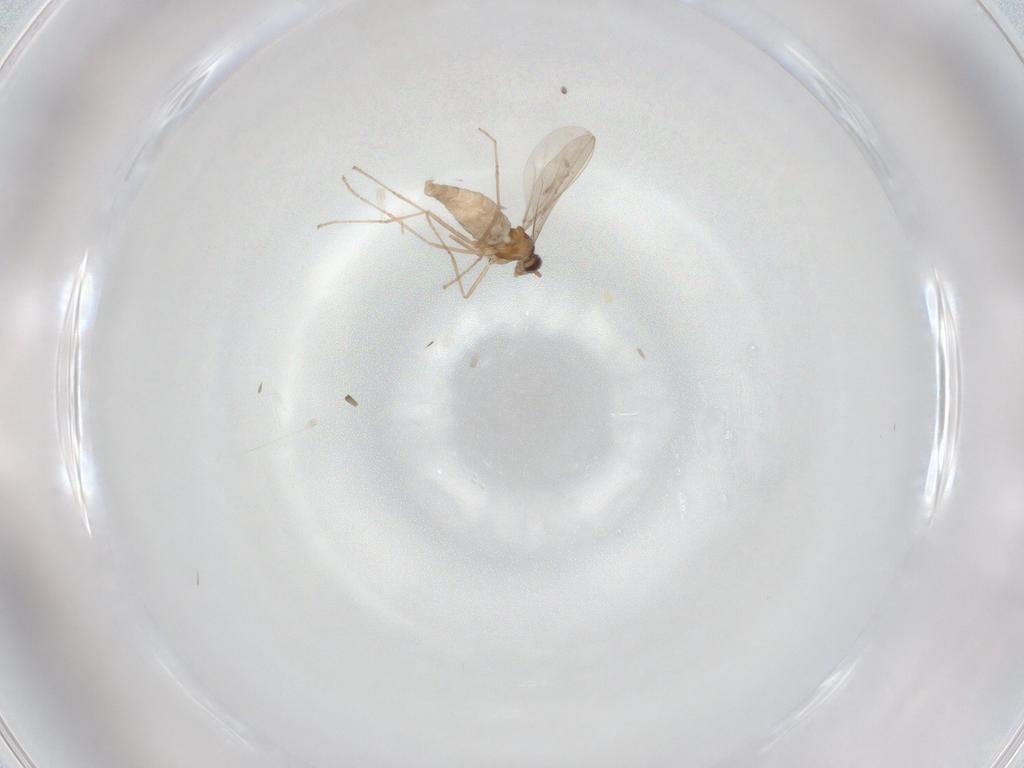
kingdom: Animalia
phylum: Arthropoda
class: Insecta
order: Diptera
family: Cecidomyiidae
